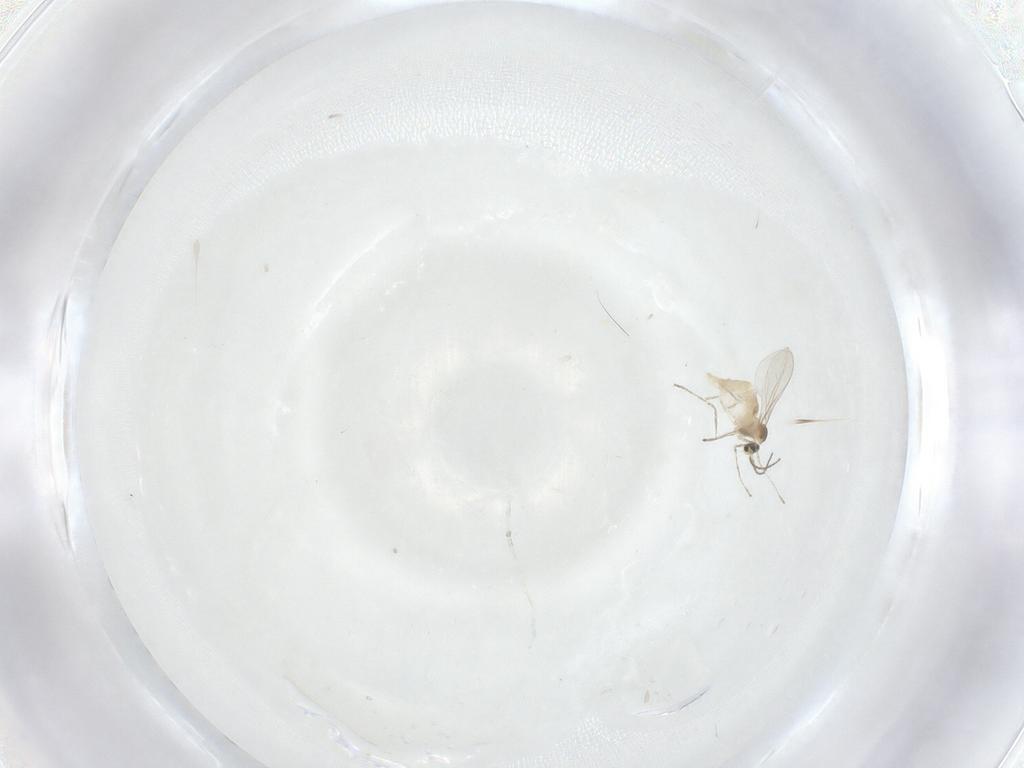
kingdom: Animalia
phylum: Arthropoda
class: Insecta
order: Diptera
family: Cecidomyiidae
